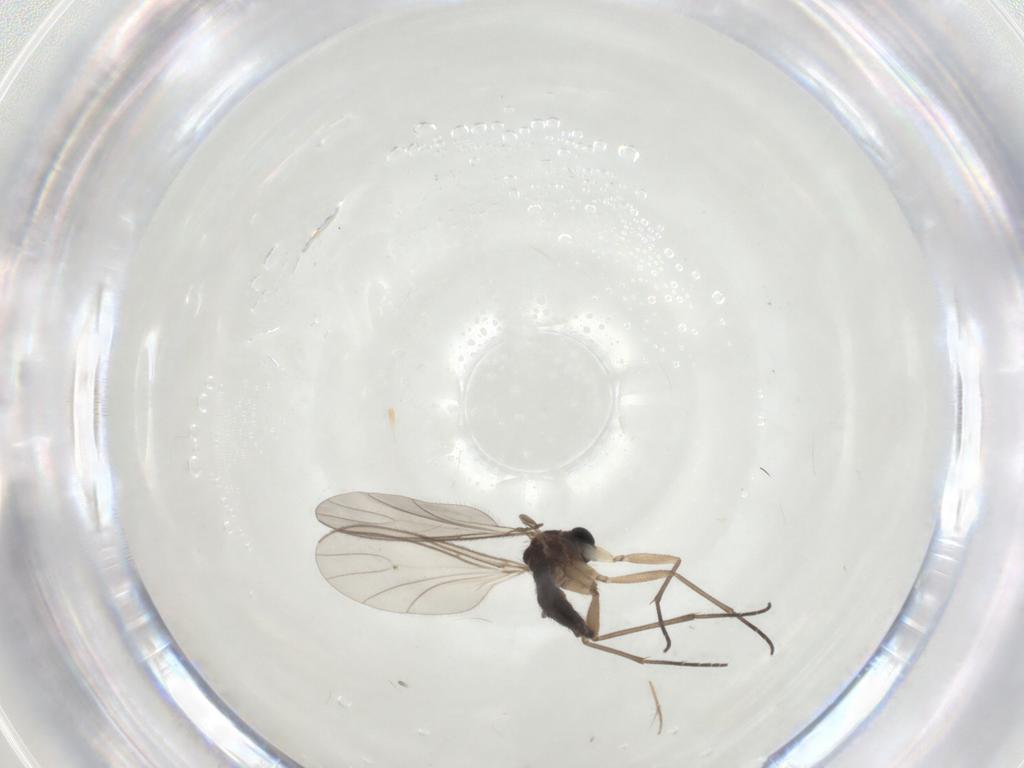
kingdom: Animalia
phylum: Arthropoda
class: Insecta
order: Diptera
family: Sciaridae
